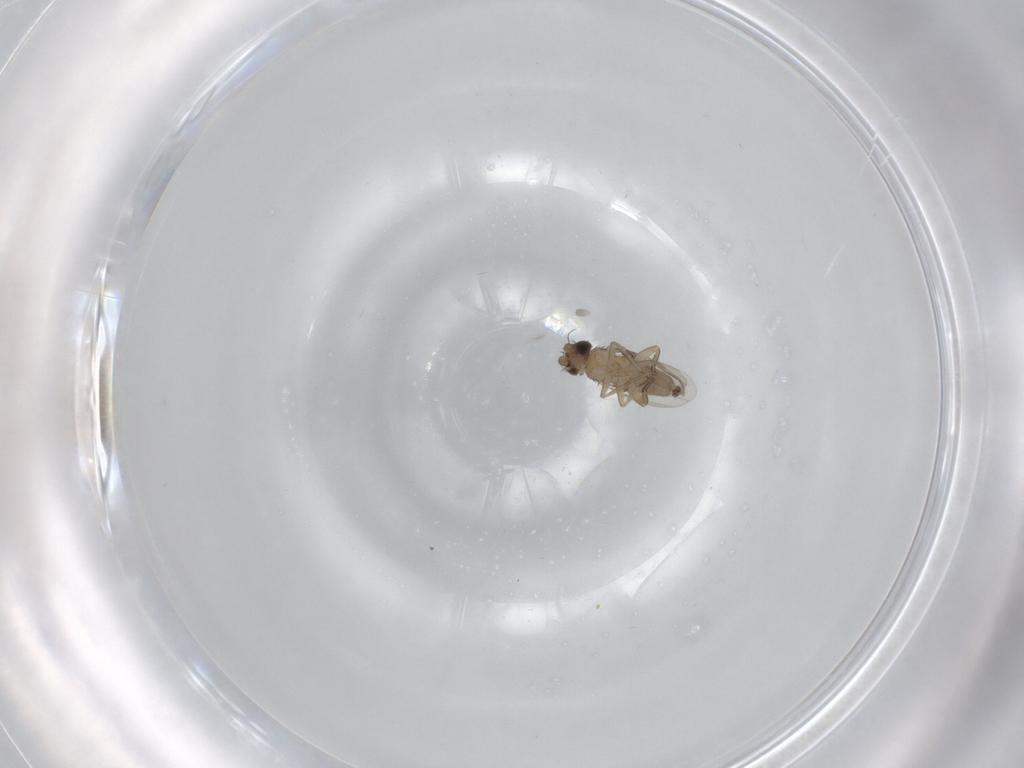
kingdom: Animalia
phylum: Arthropoda
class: Insecta
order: Diptera
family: Phoridae
